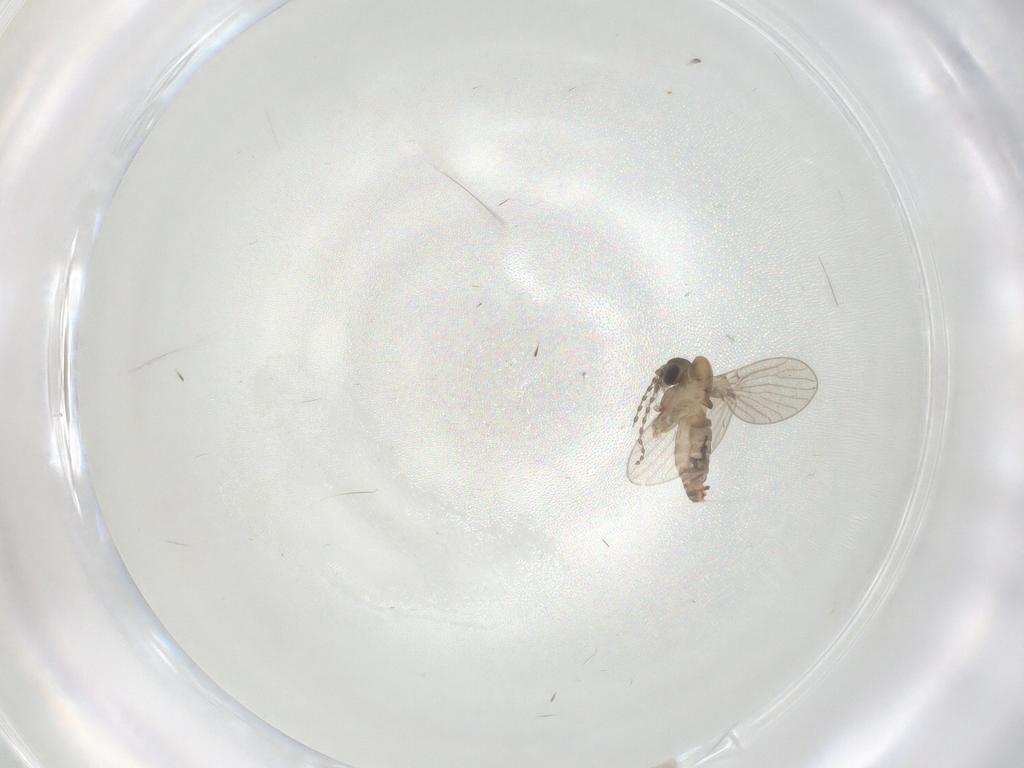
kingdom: Animalia
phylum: Arthropoda
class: Insecta
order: Diptera
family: Psychodidae
